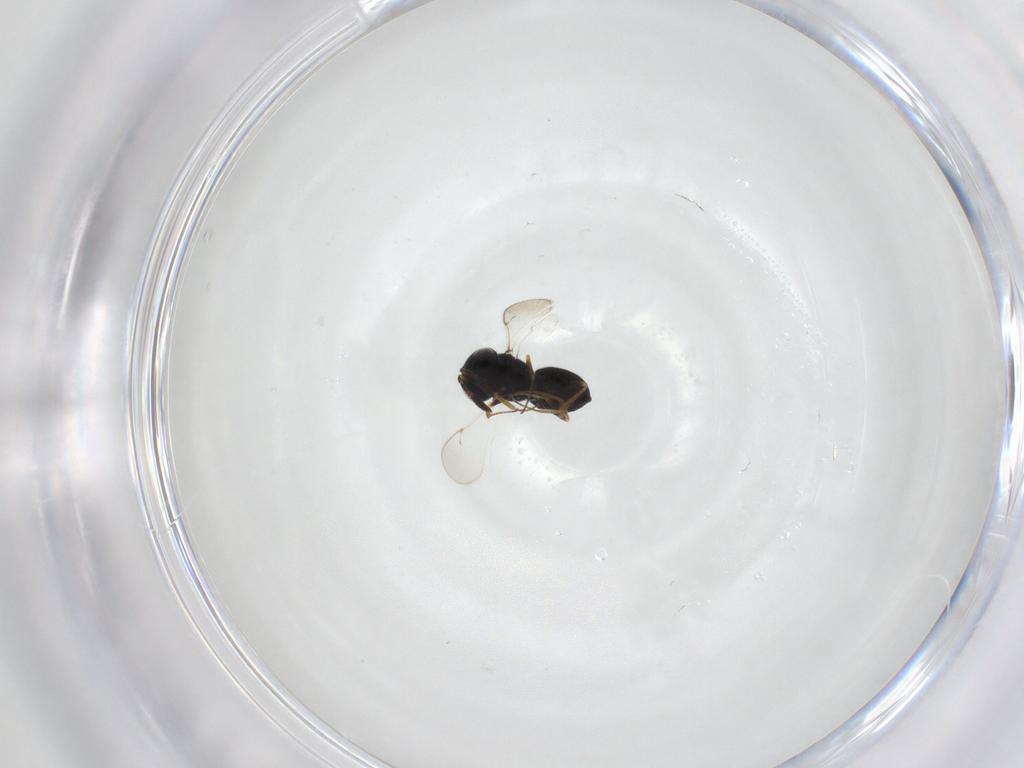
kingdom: Animalia
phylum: Arthropoda
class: Insecta
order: Hymenoptera
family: Scelionidae
